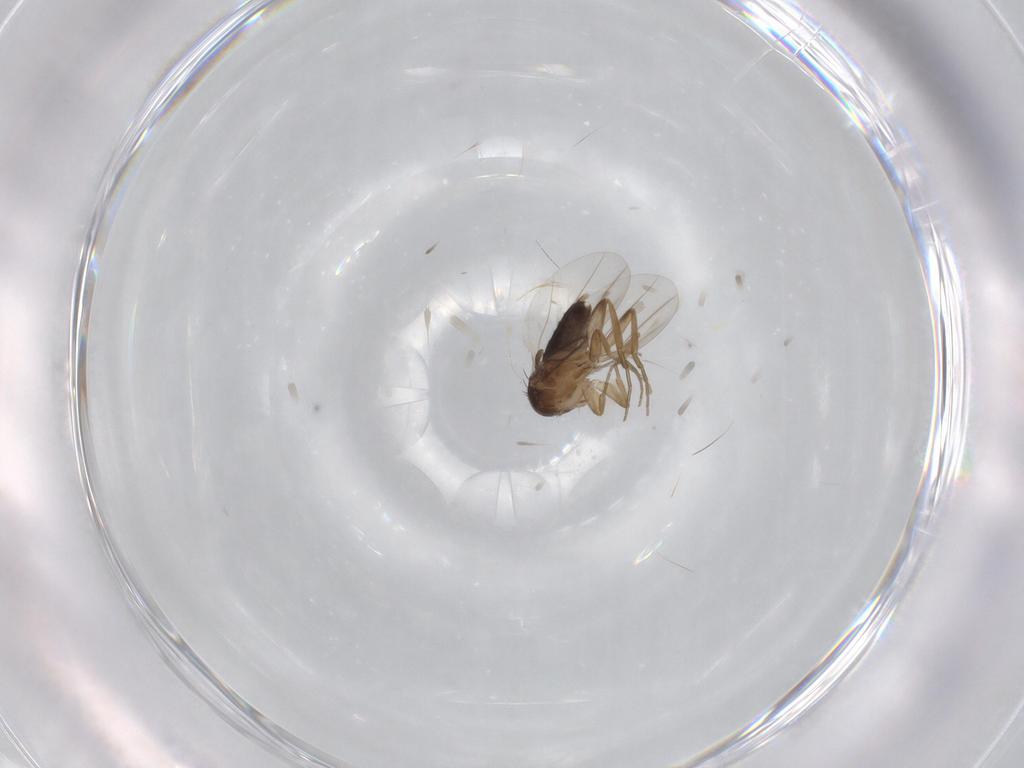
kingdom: Animalia
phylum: Arthropoda
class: Insecta
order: Diptera
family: Phoridae
